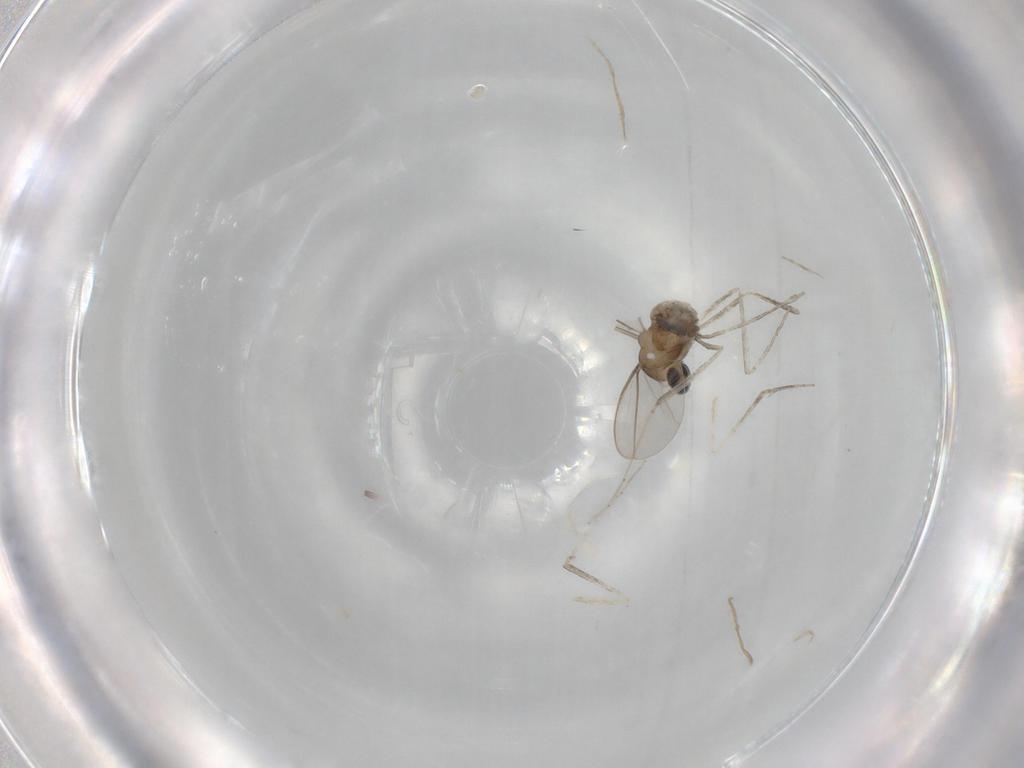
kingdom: Animalia
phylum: Arthropoda
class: Insecta
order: Diptera
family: Cecidomyiidae
